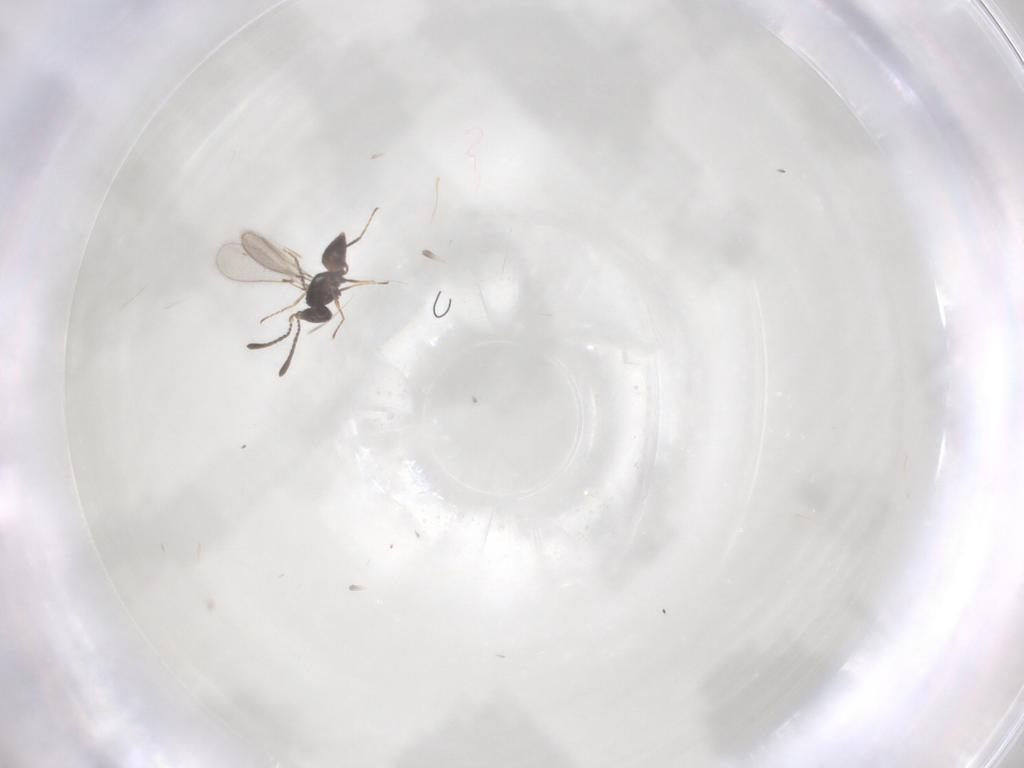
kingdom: Animalia
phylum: Arthropoda
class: Insecta
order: Hymenoptera
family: Mymaridae
